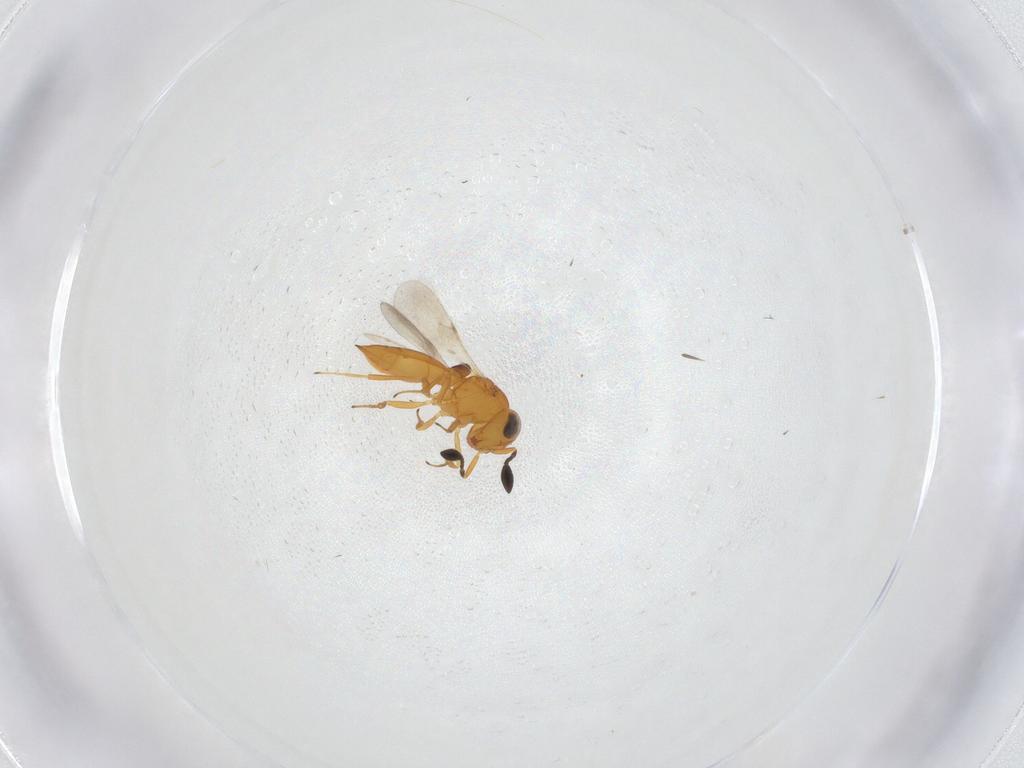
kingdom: Animalia
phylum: Arthropoda
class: Insecta
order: Hymenoptera
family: Scelionidae
